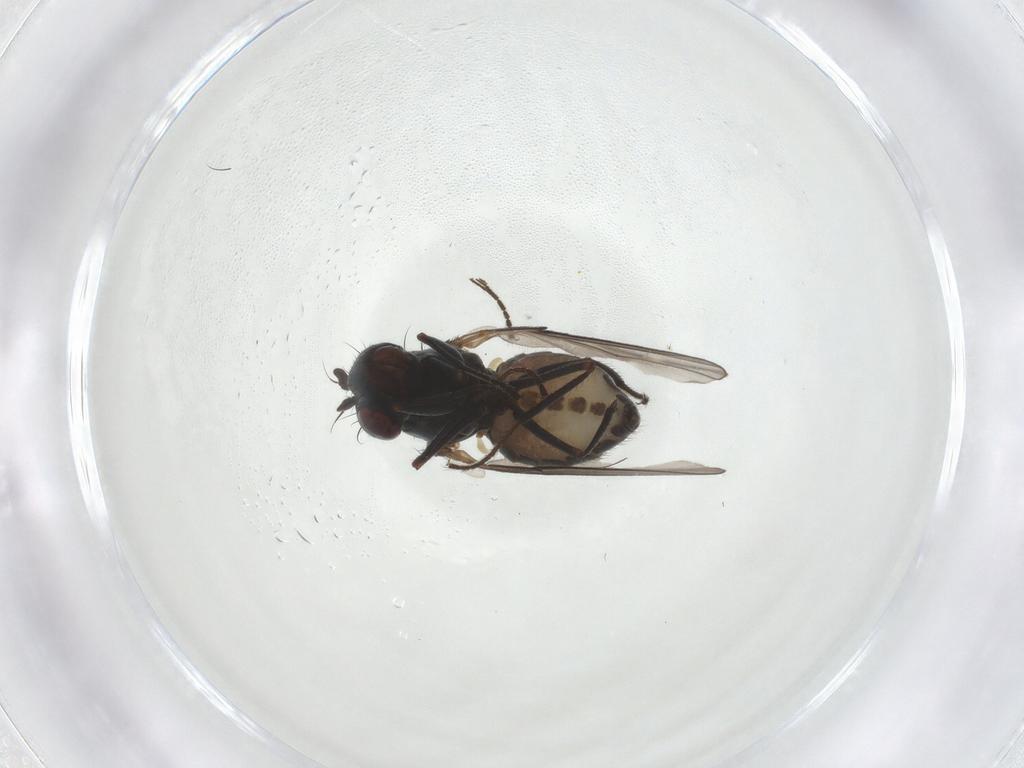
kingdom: Animalia
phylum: Arthropoda
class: Insecta
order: Diptera
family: Ephydridae
